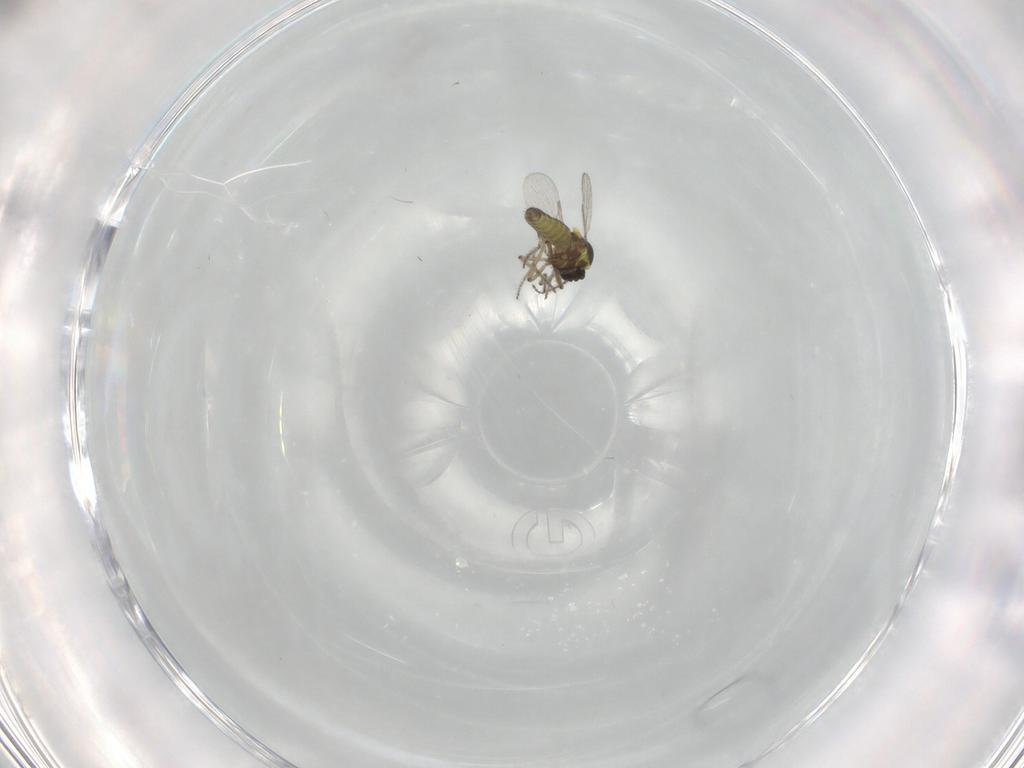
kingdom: Animalia
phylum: Arthropoda
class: Insecta
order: Diptera
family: Ceratopogonidae
